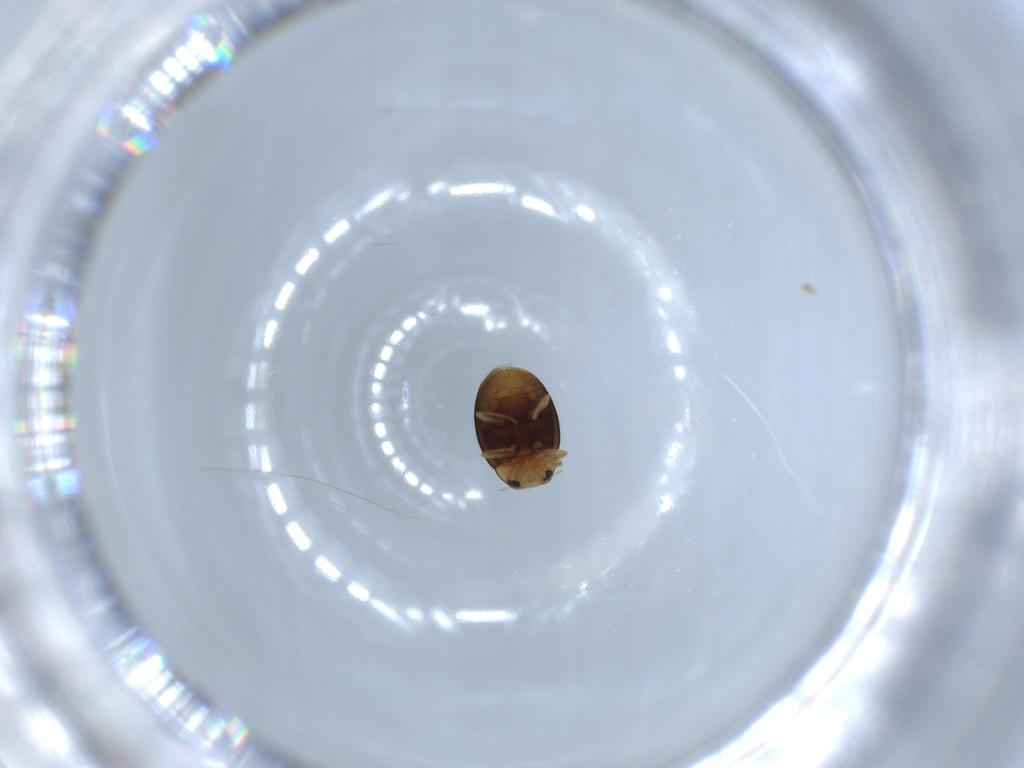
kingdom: Animalia
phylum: Arthropoda
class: Insecta
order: Coleoptera
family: Coccinellidae
